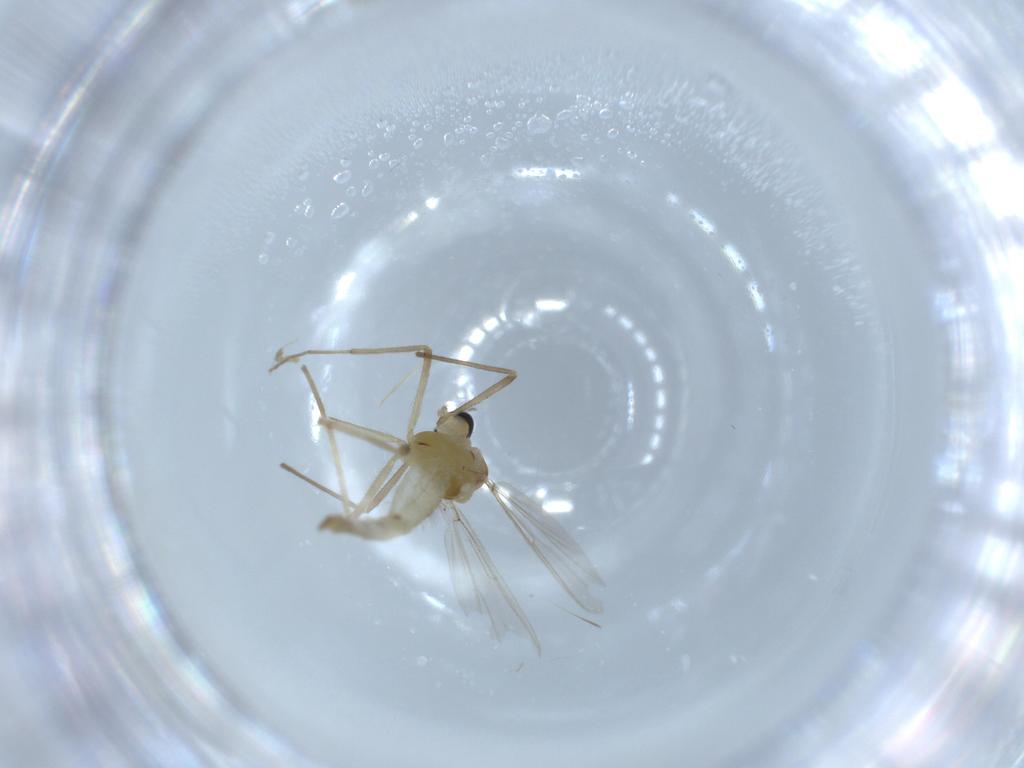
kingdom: Animalia
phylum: Arthropoda
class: Insecta
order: Diptera
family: Chironomidae
